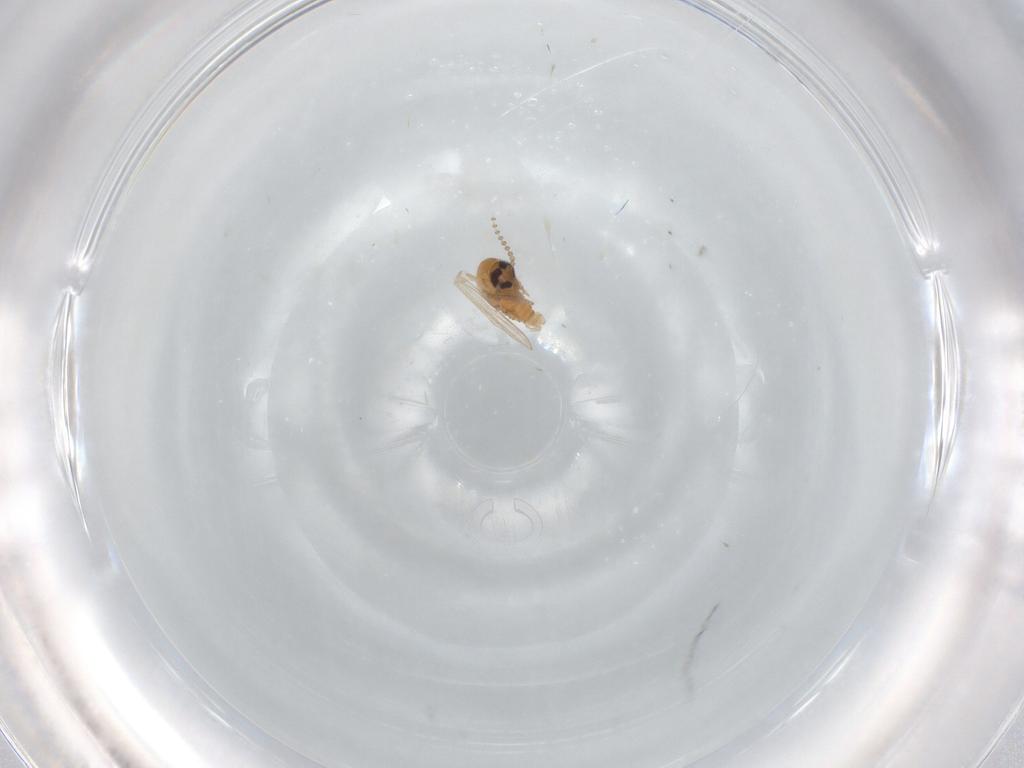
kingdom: Animalia
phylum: Arthropoda
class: Insecta
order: Diptera
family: Psychodidae
